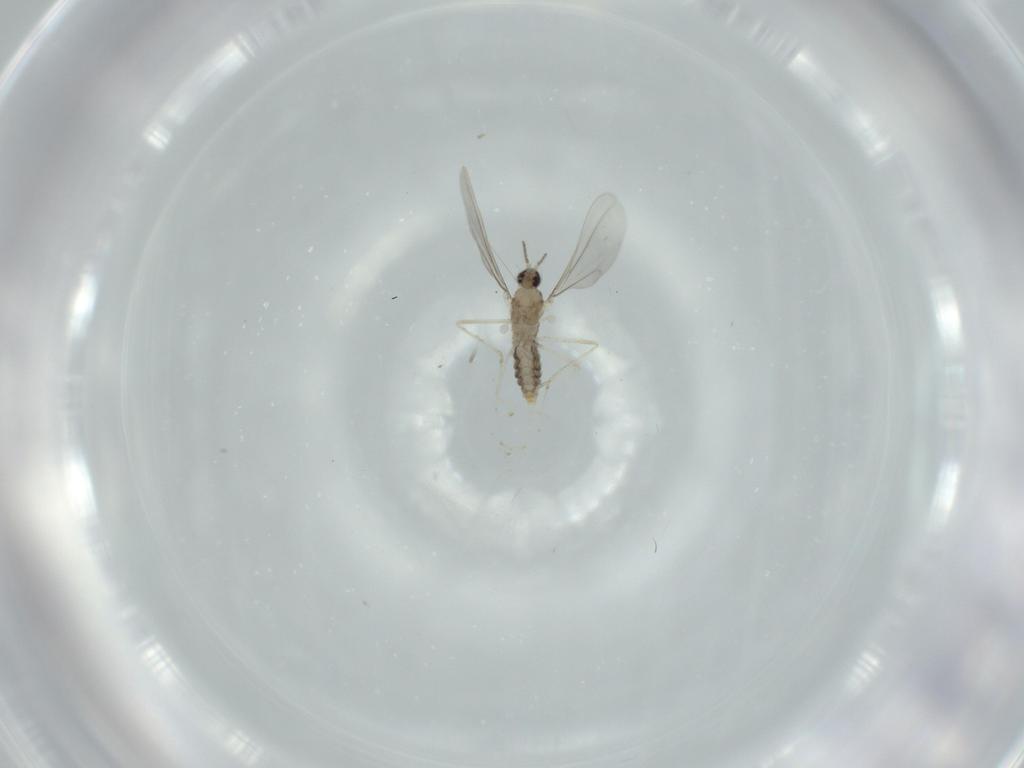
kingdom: Animalia
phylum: Arthropoda
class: Insecta
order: Diptera
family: Cecidomyiidae
